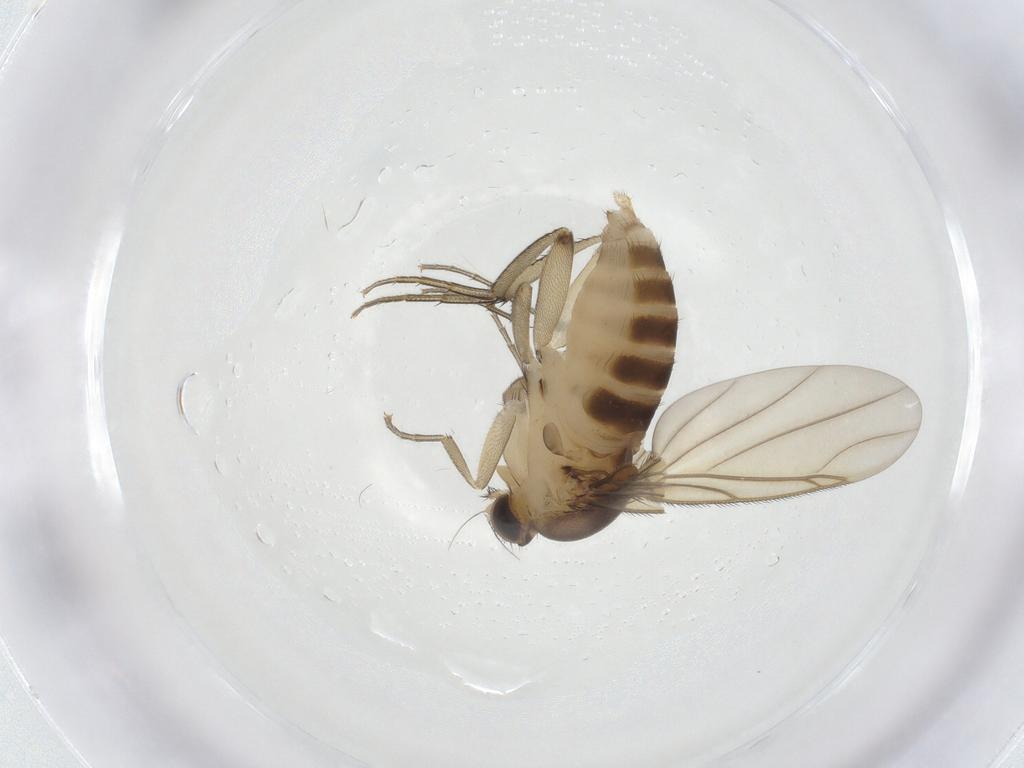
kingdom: Animalia
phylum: Arthropoda
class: Insecta
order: Diptera
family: Phoridae
